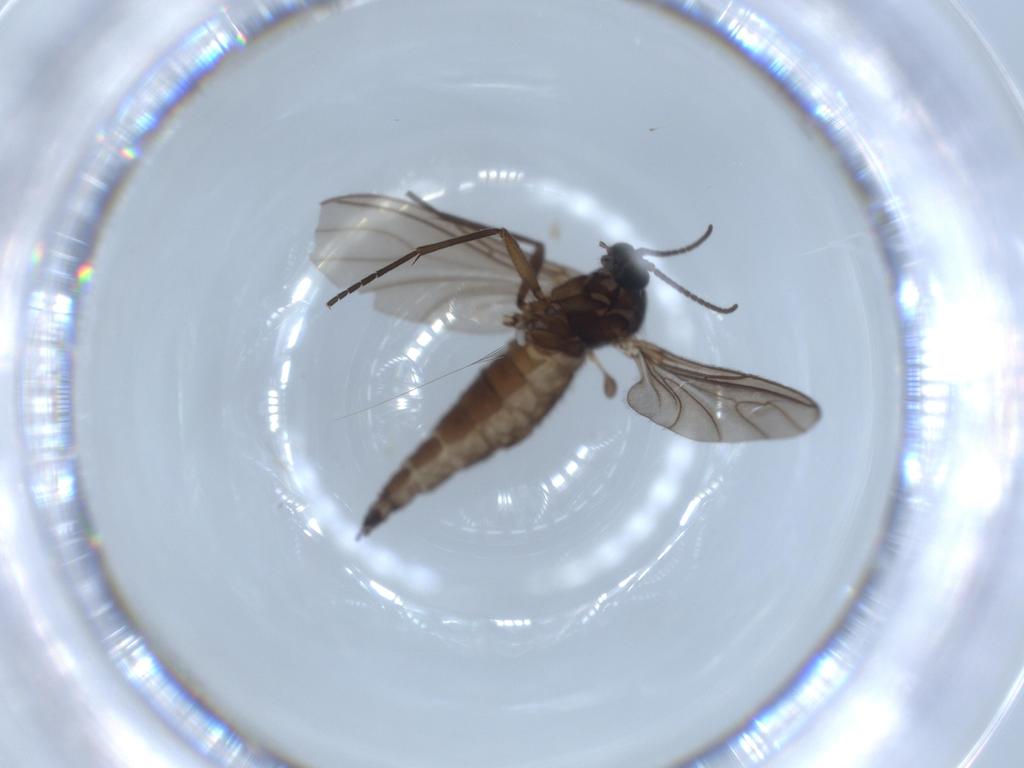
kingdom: Animalia
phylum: Arthropoda
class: Insecta
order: Diptera
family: Sciaridae
